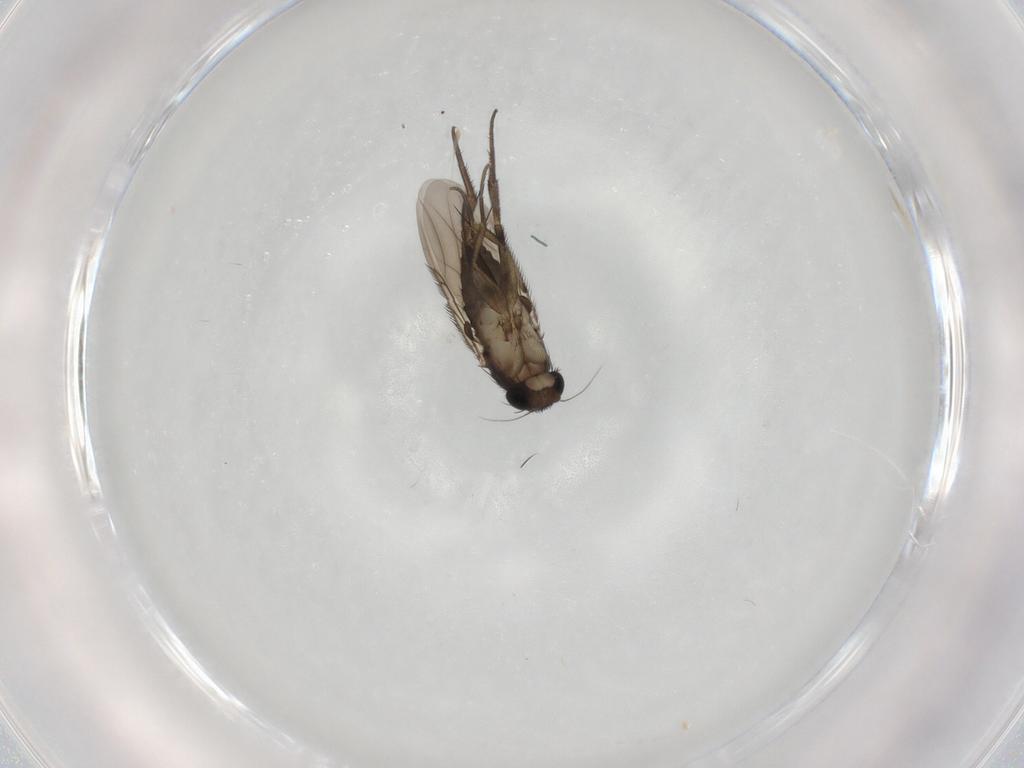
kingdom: Animalia
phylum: Arthropoda
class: Insecta
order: Diptera
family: Phoridae
